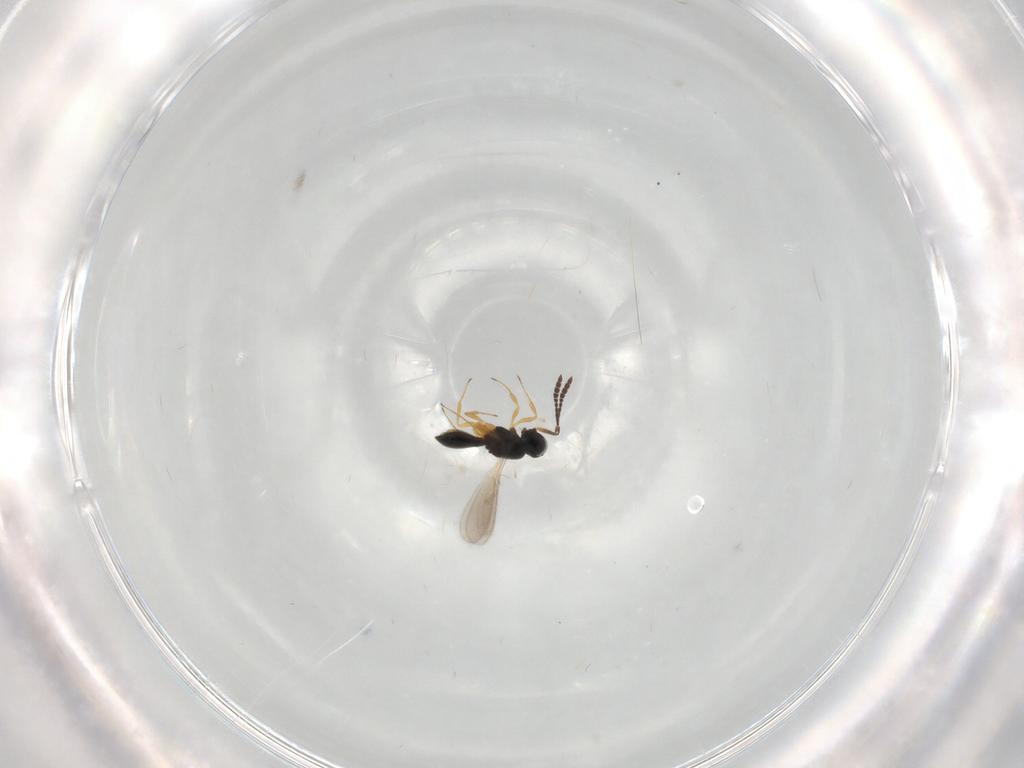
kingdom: Animalia
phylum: Arthropoda
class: Insecta
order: Hymenoptera
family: Scelionidae
